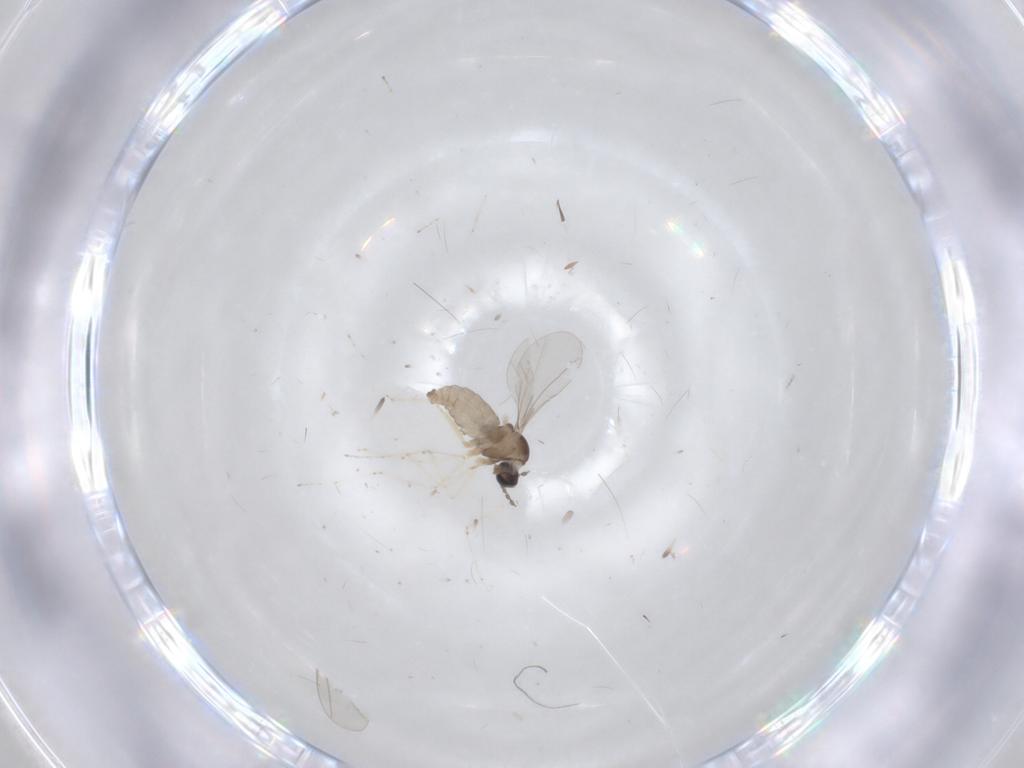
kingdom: Animalia
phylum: Arthropoda
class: Insecta
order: Diptera
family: Cecidomyiidae
